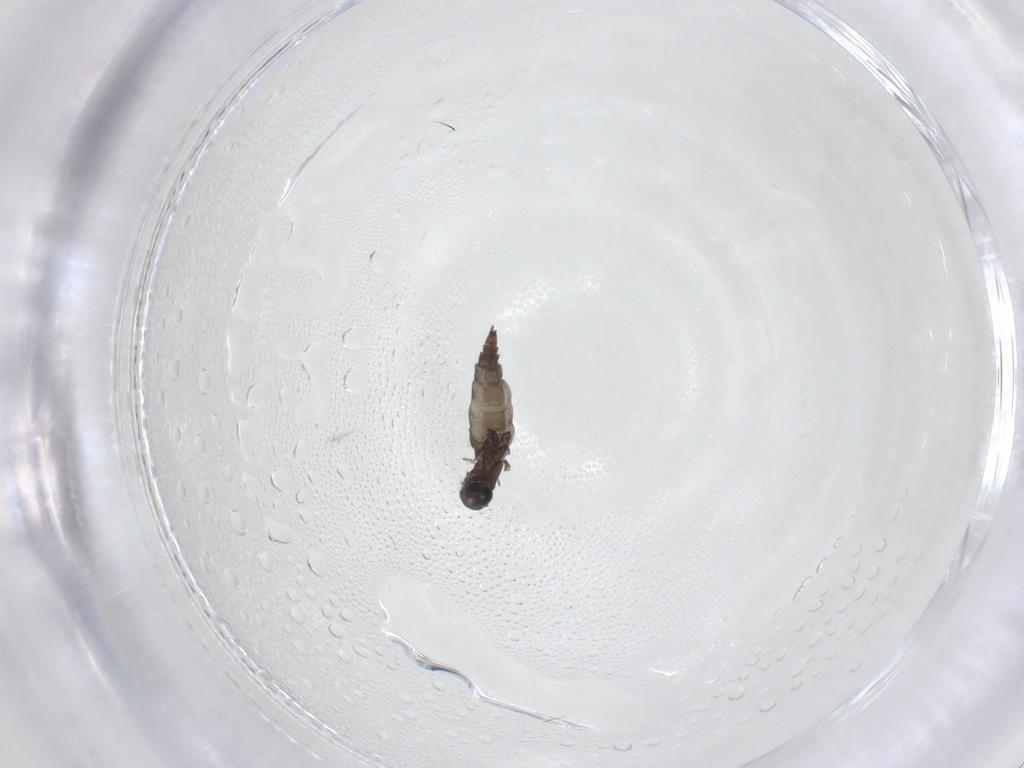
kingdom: Animalia
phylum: Arthropoda
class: Insecta
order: Diptera
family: Sciaridae
